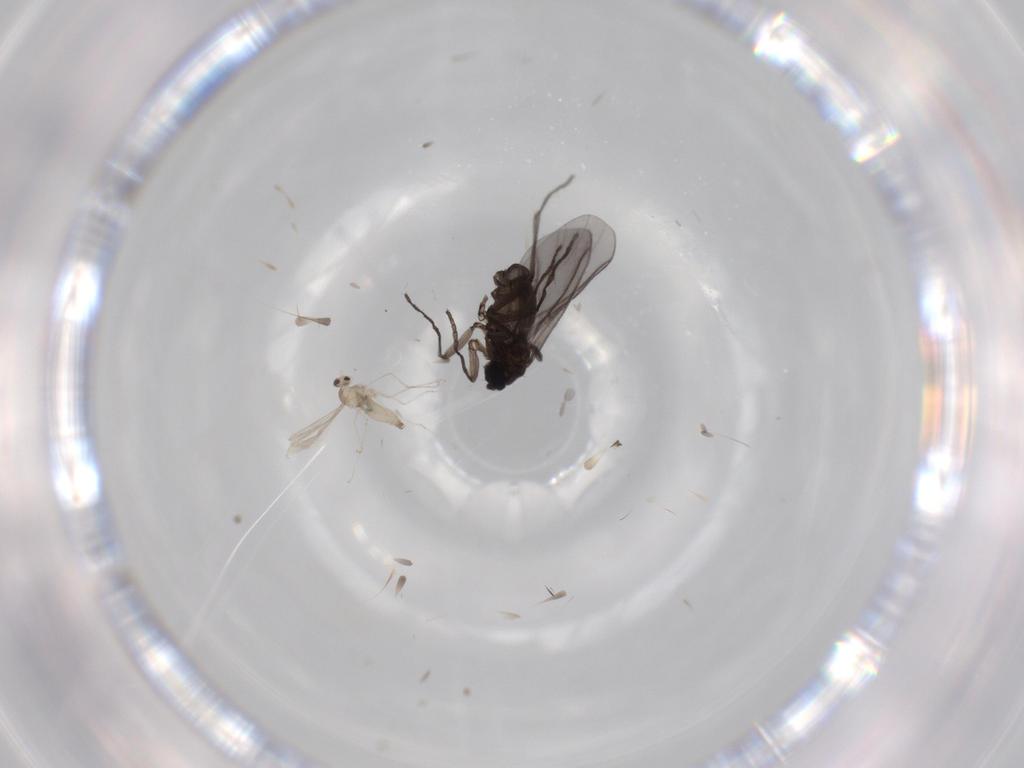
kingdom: Animalia
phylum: Arthropoda
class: Insecta
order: Diptera
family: Cecidomyiidae
